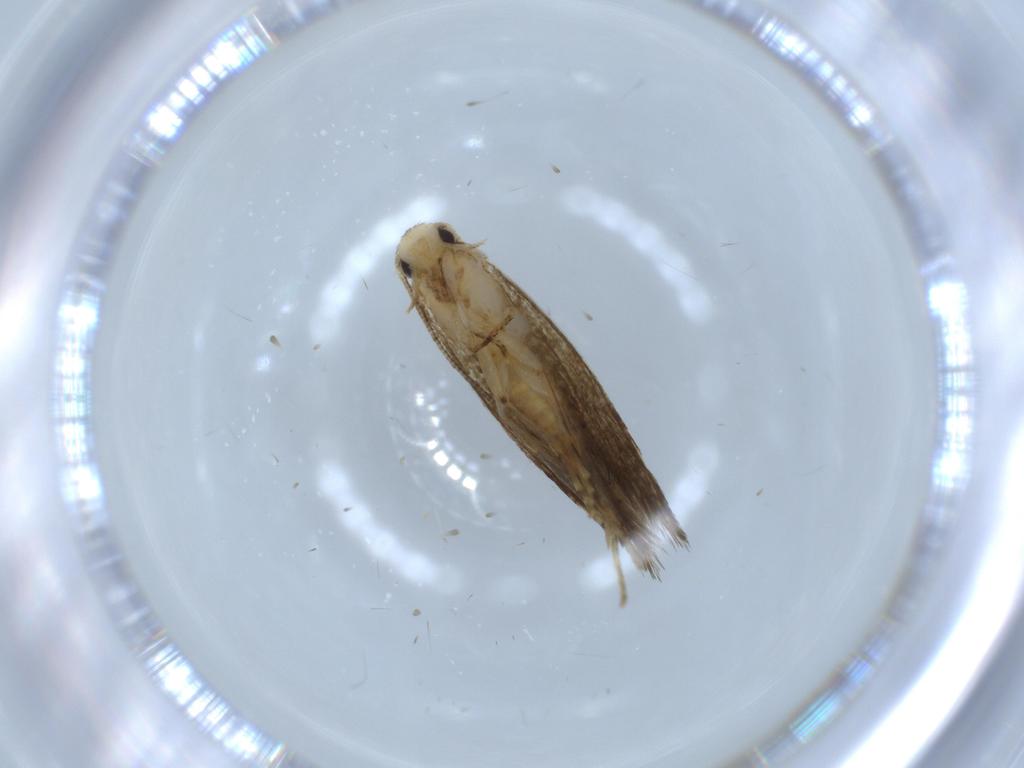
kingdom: Animalia
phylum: Arthropoda
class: Insecta
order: Lepidoptera
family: Tineidae
